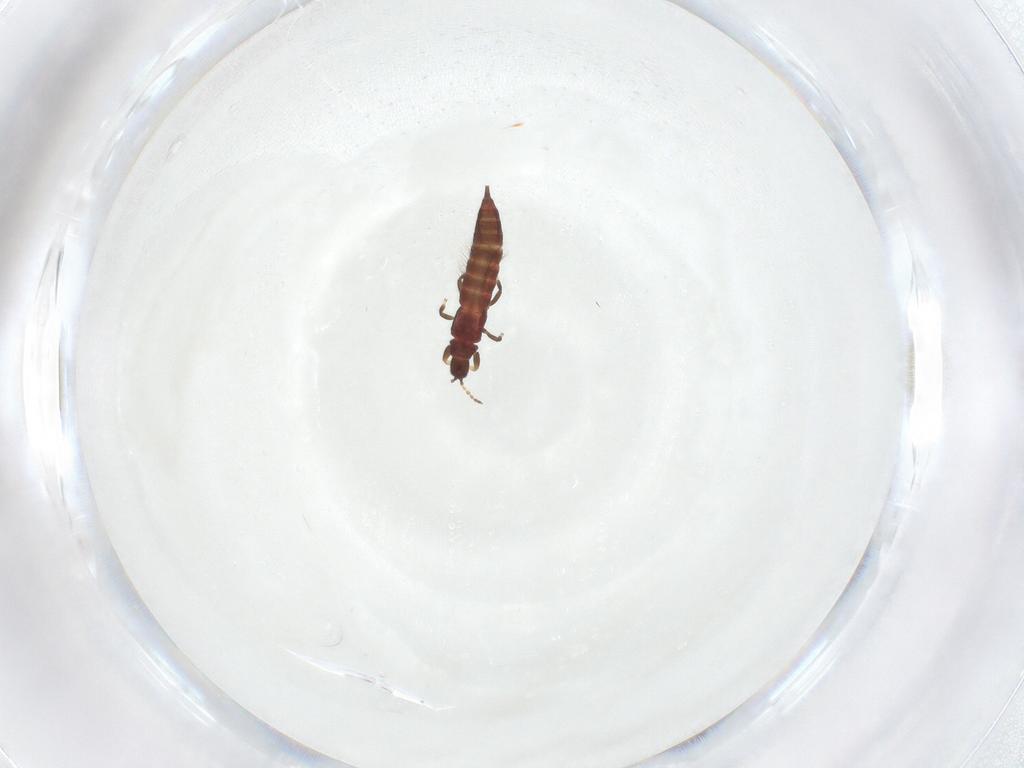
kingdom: Animalia
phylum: Arthropoda
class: Insecta
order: Thysanoptera
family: Phlaeothripidae
